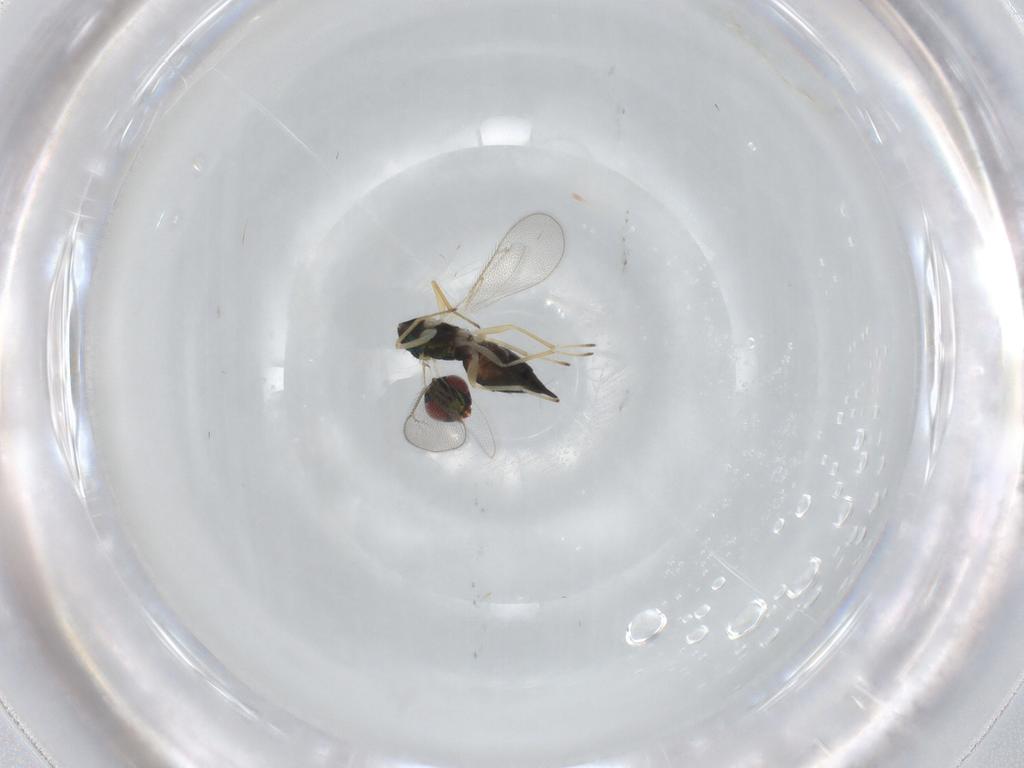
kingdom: Animalia
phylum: Arthropoda
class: Insecta
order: Hymenoptera
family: Eulophidae
